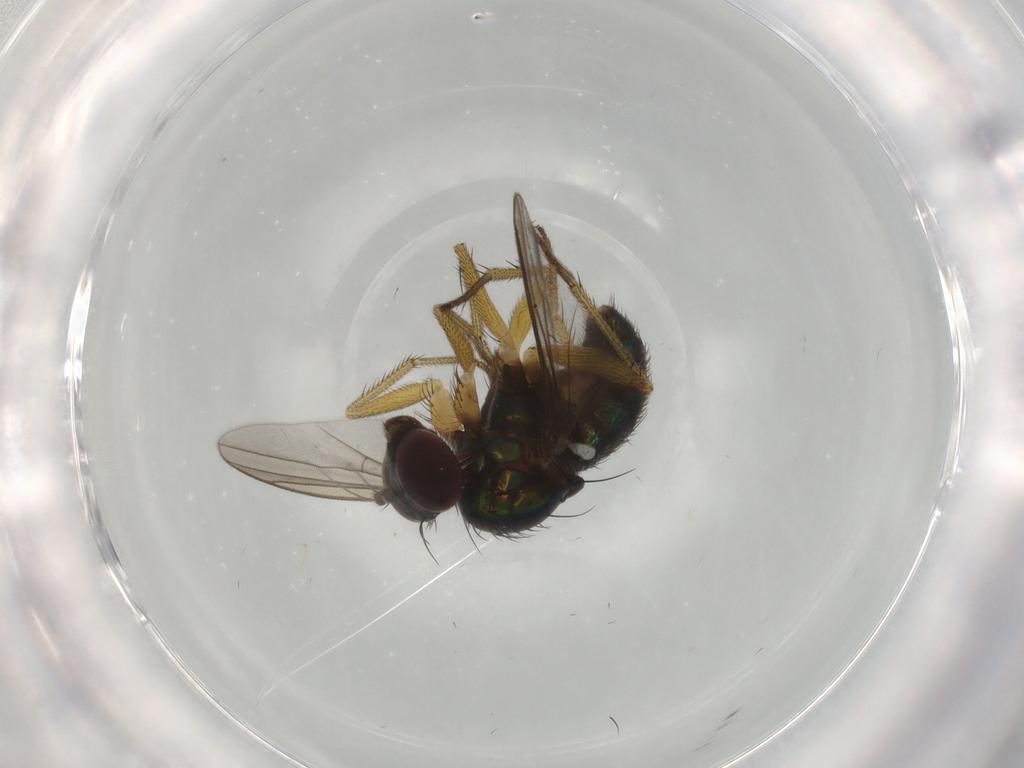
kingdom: Animalia
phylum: Arthropoda
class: Insecta
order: Diptera
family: Dolichopodidae
